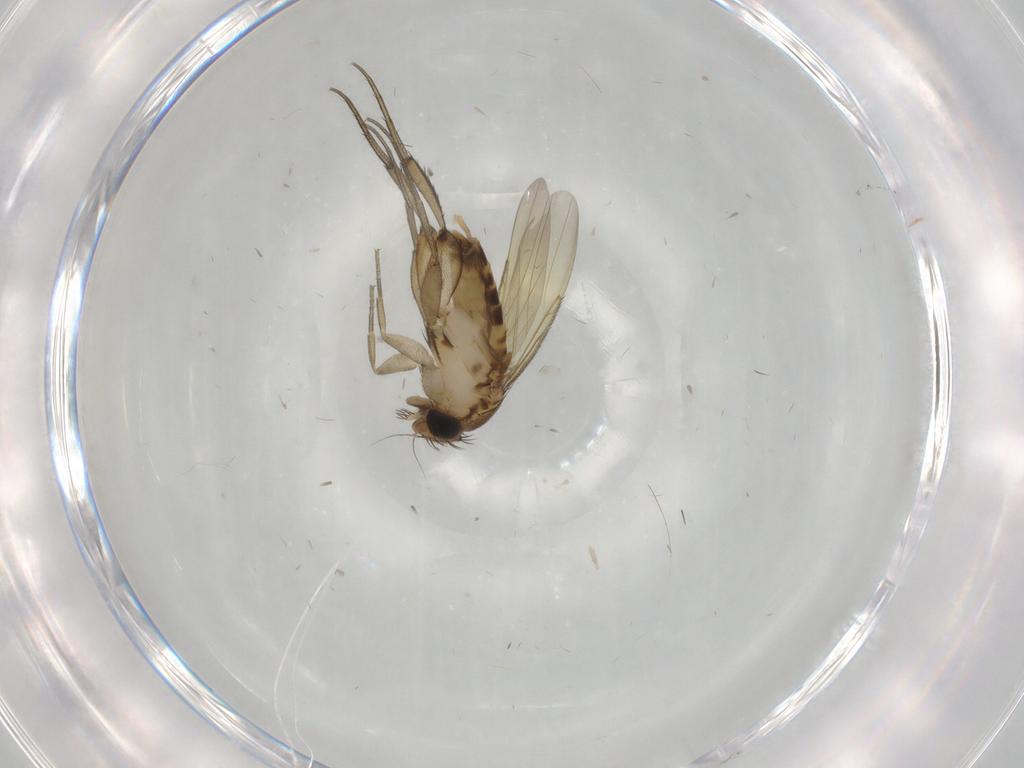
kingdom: Animalia
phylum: Arthropoda
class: Insecta
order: Diptera
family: Phoridae
